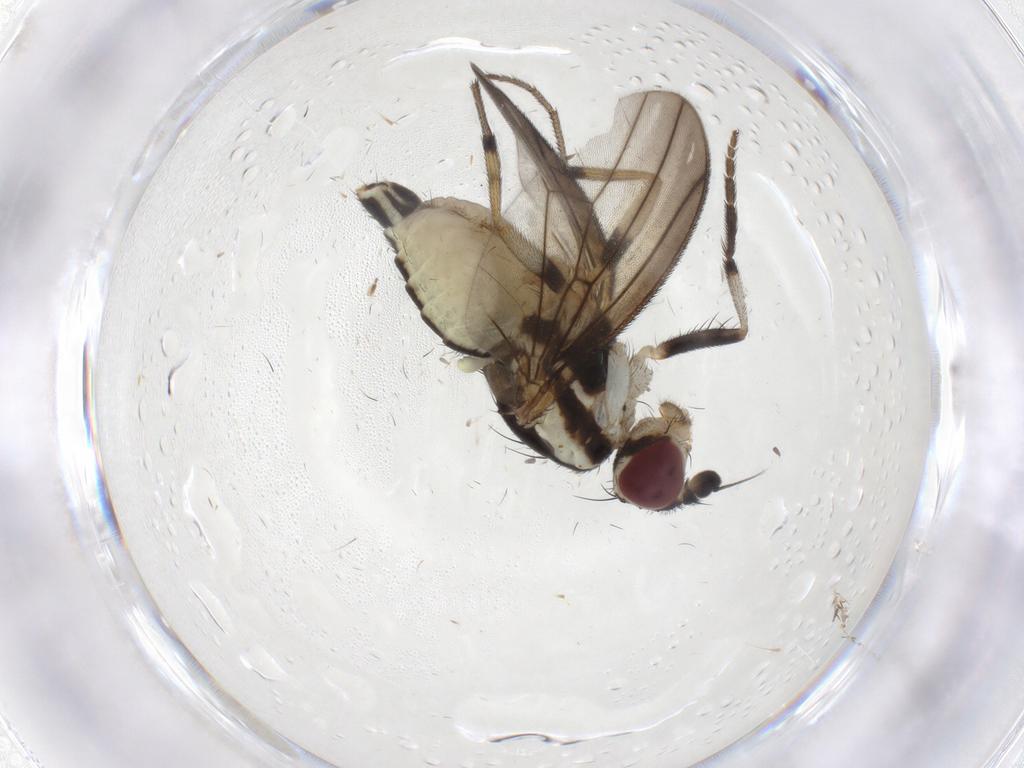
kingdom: Animalia
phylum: Arthropoda
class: Insecta
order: Diptera
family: Pseudopomyzidae
